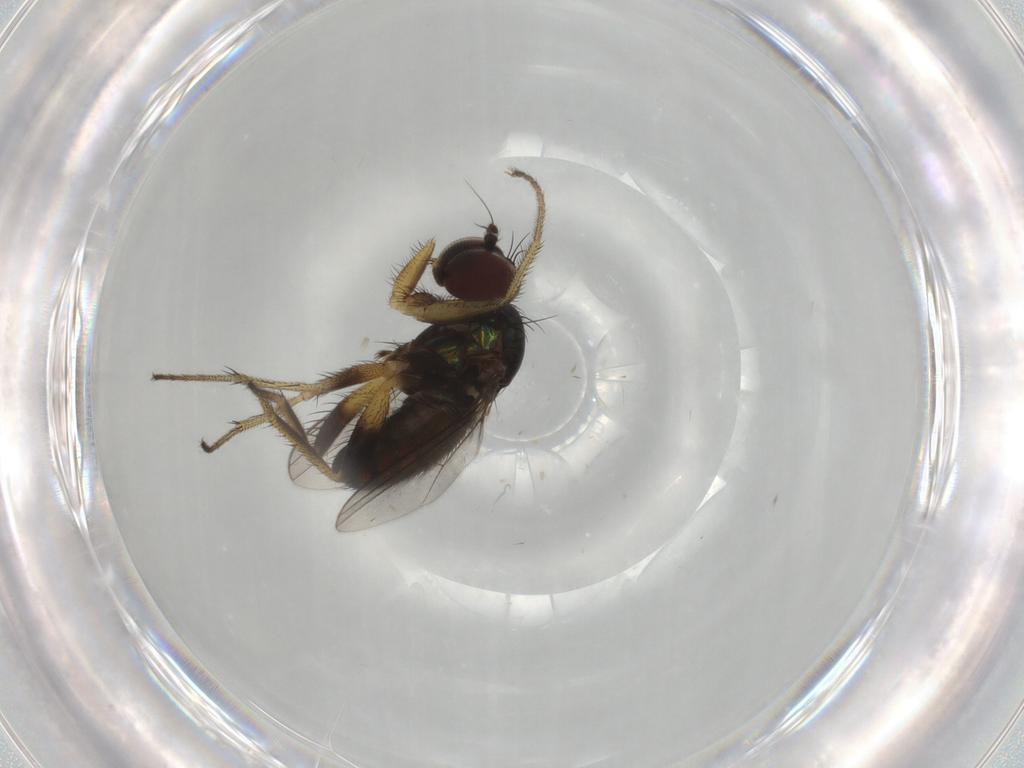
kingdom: Animalia
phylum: Arthropoda
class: Insecta
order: Diptera
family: Dolichopodidae
